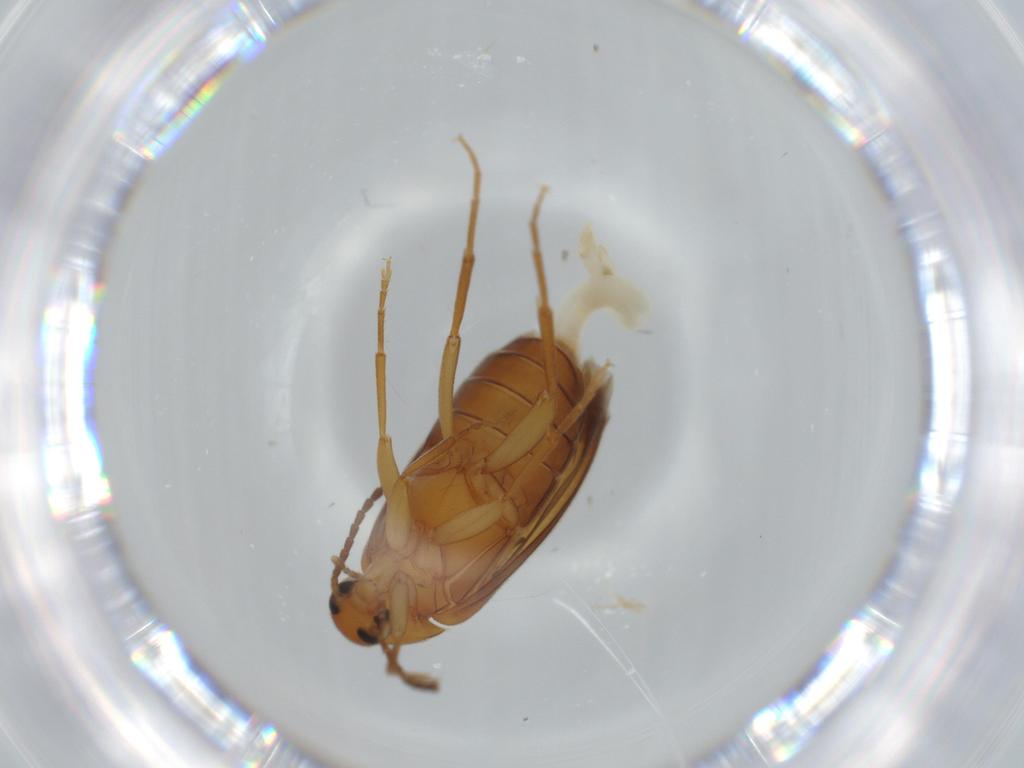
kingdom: Animalia
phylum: Arthropoda
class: Insecta
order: Coleoptera
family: Scraptiidae
